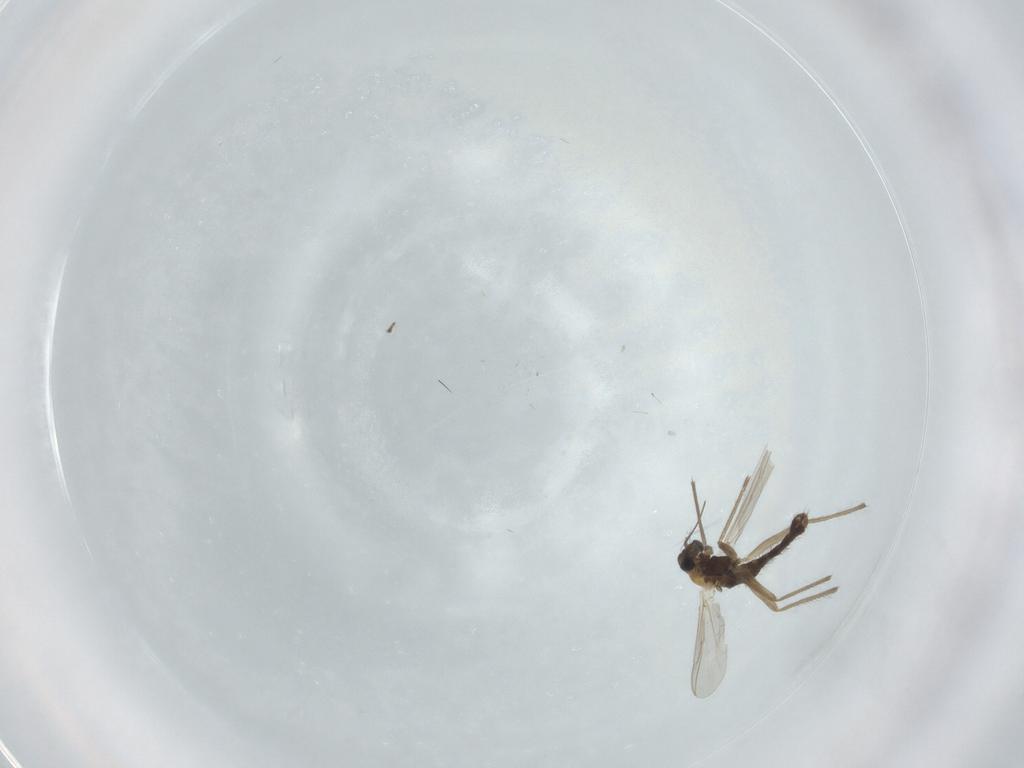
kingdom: Animalia
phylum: Arthropoda
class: Insecta
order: Diptera
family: Chironomidae
